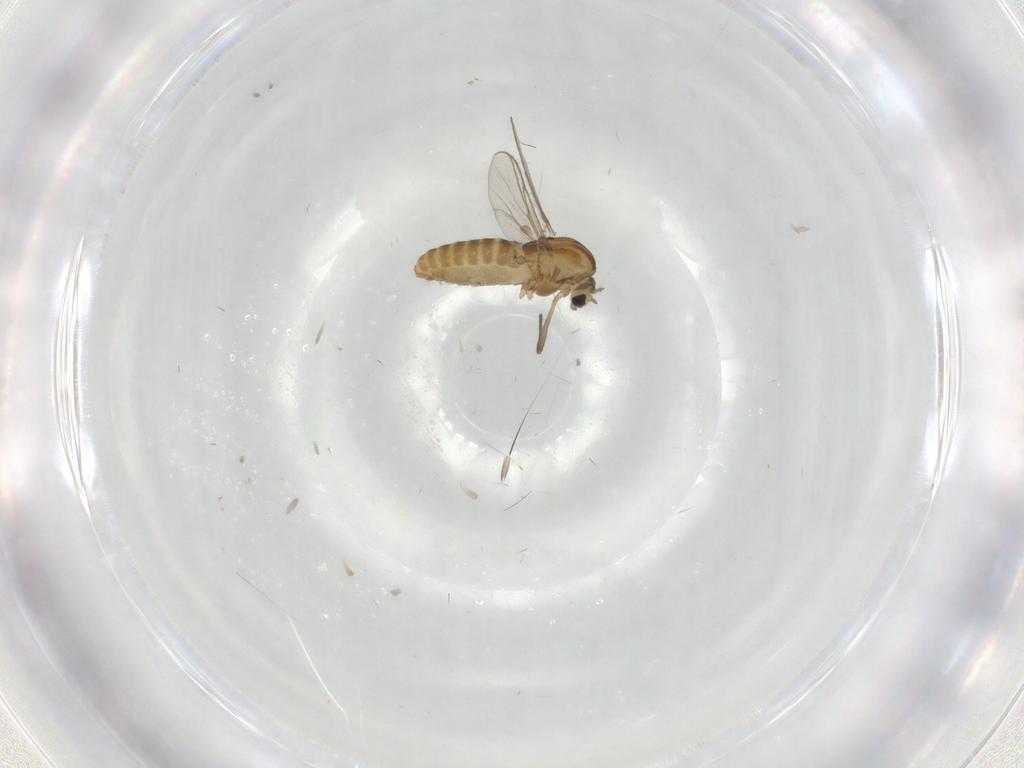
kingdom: Animalia
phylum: Arthropoda
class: Insecta
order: Diptera
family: Chironomidae
